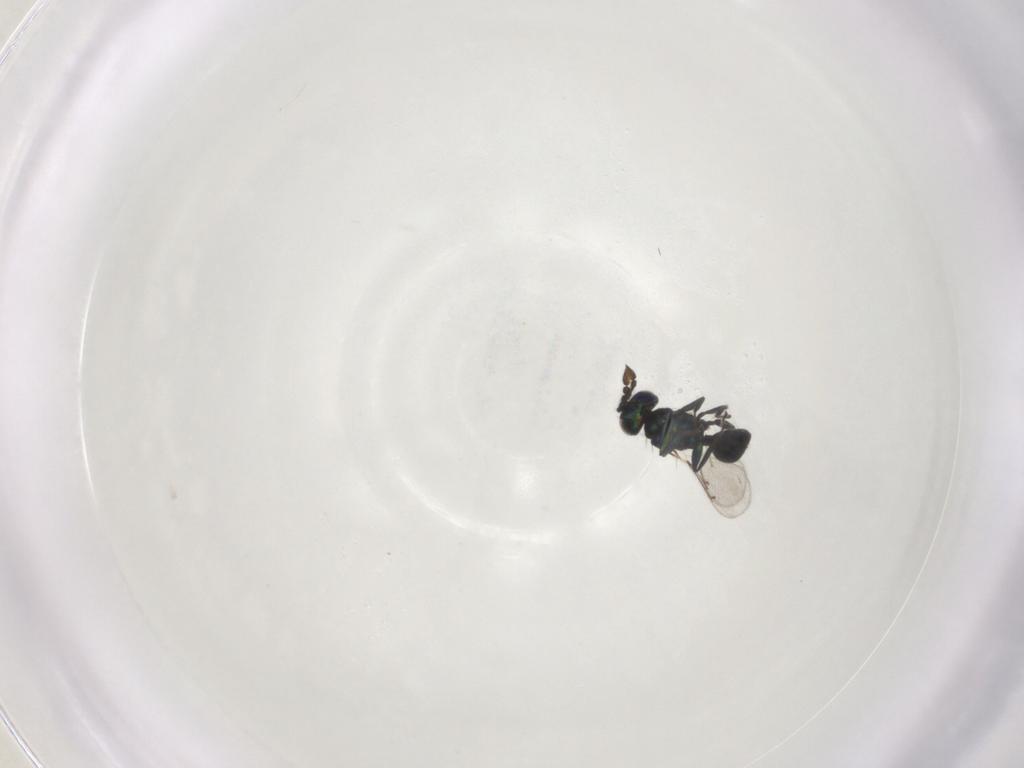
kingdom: Animalia
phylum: Arthropoda
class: Insecta
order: Hymenoptera
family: Eulophidae
